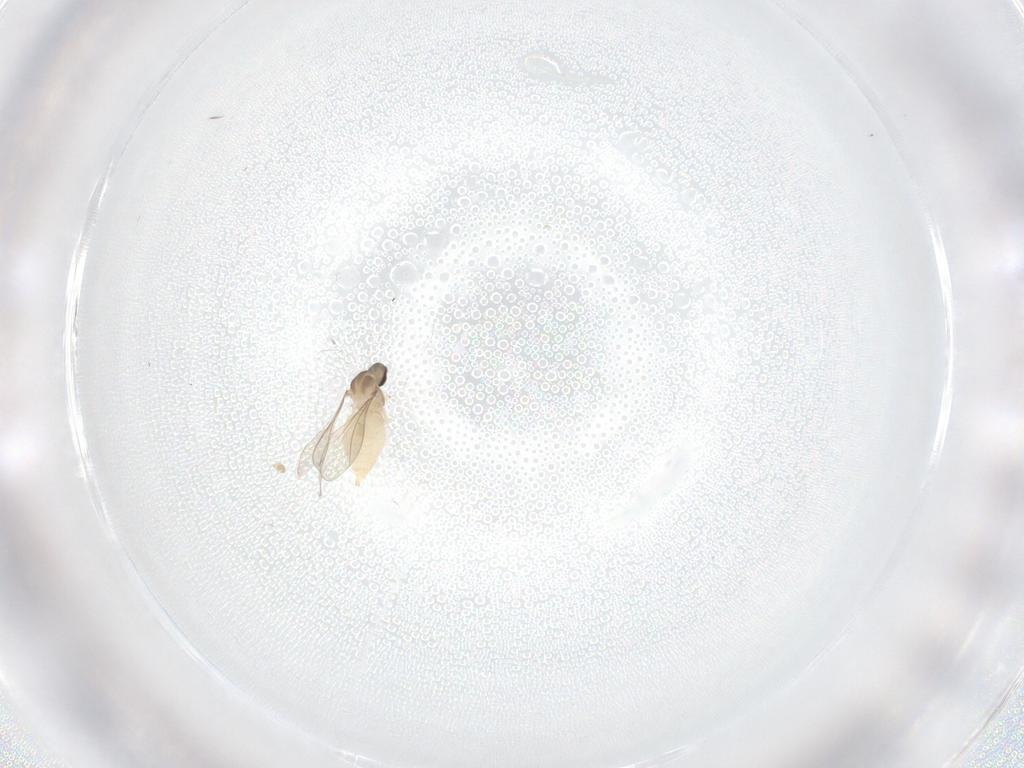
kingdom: Animalia
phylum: Arthropoda
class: Insecta
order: Diptera
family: Cecidomyiidae
